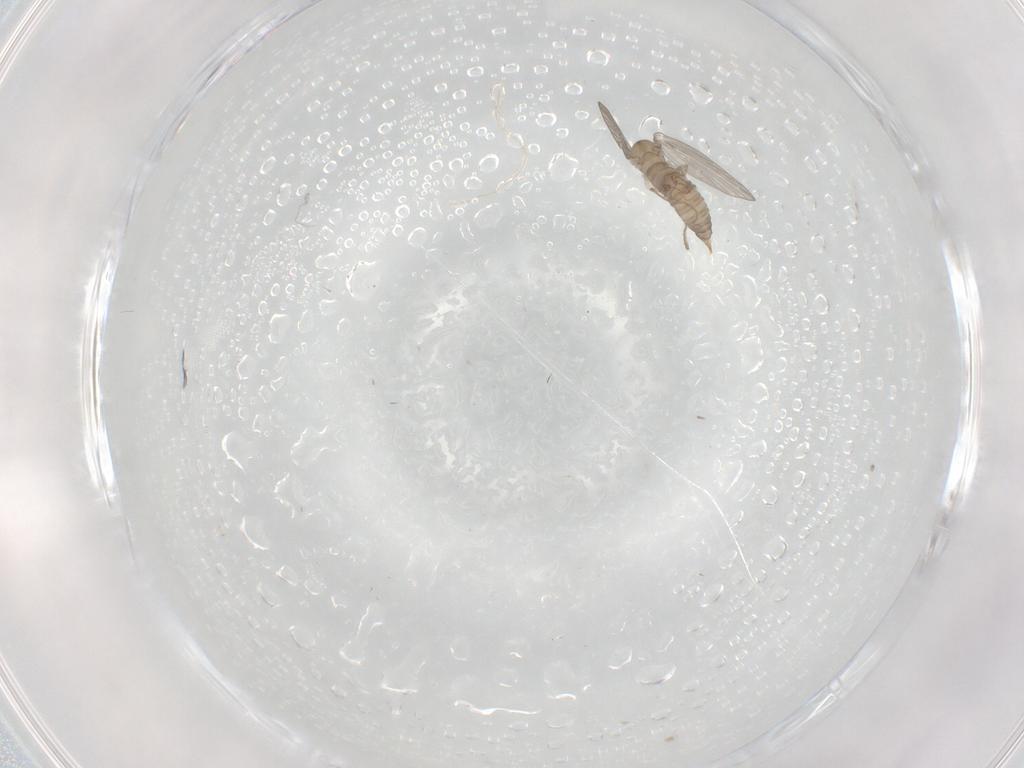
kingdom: Animalia
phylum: Arthropoda
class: Insecta
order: Diptera
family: Psychodidae
